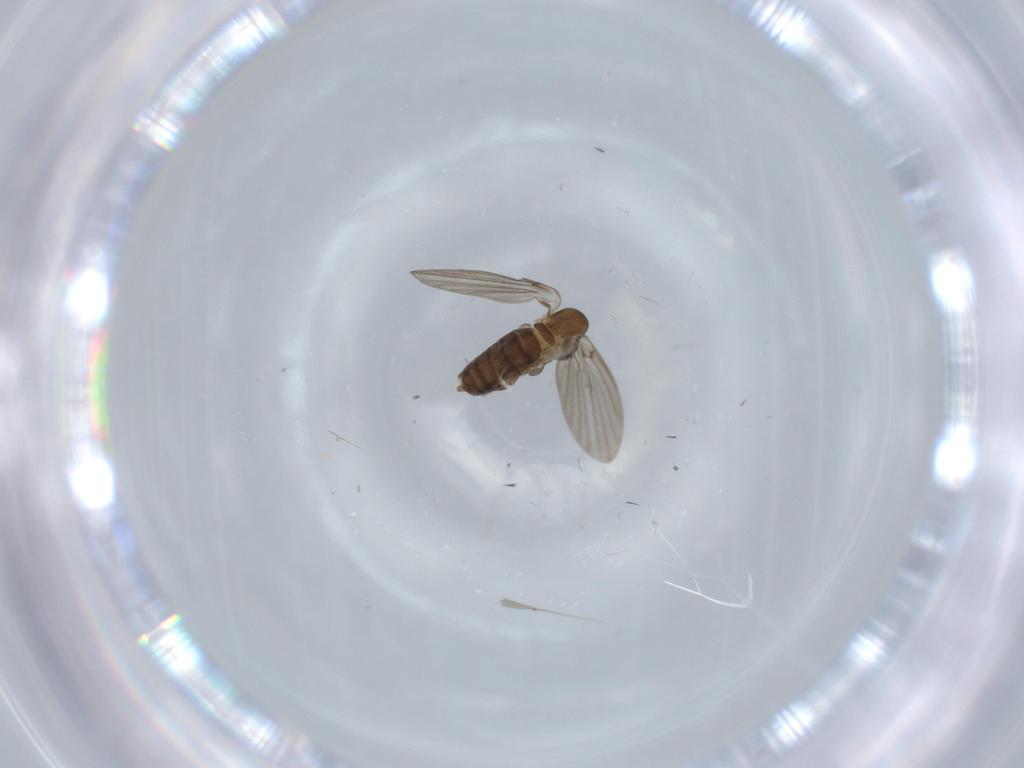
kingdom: Animalia
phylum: Arthropoda
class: Insecta
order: Diptera
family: Psychodidae
